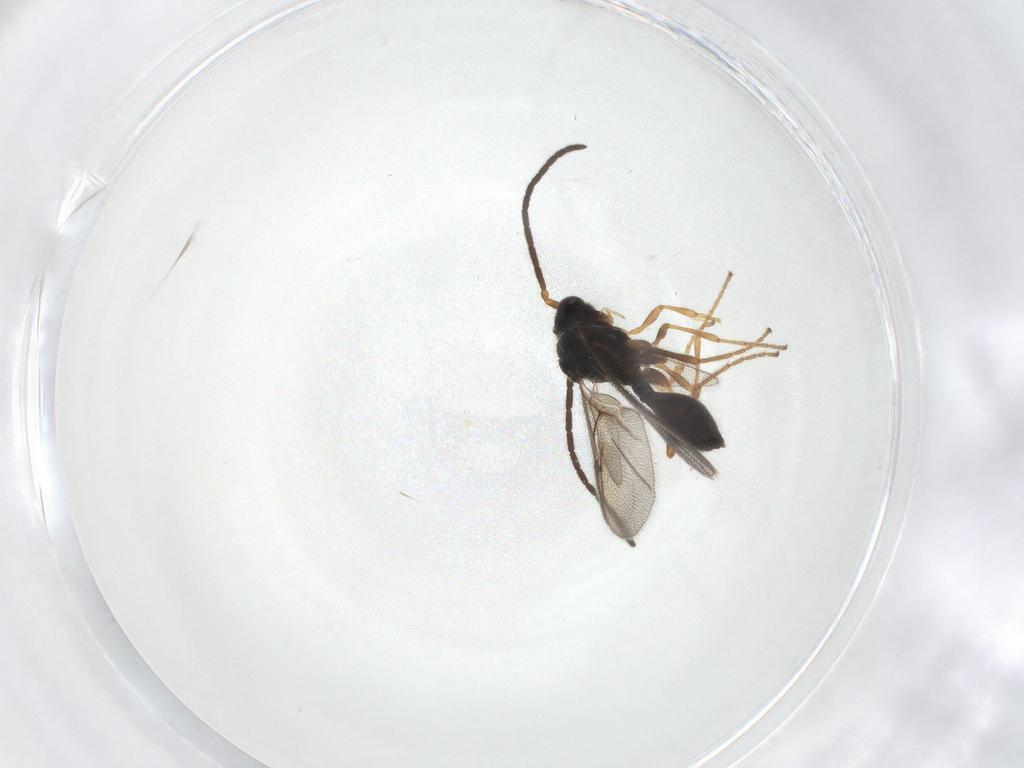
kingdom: Animalia
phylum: Arthropoda
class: Insecta
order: Hymenoptera
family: Diapriidae
